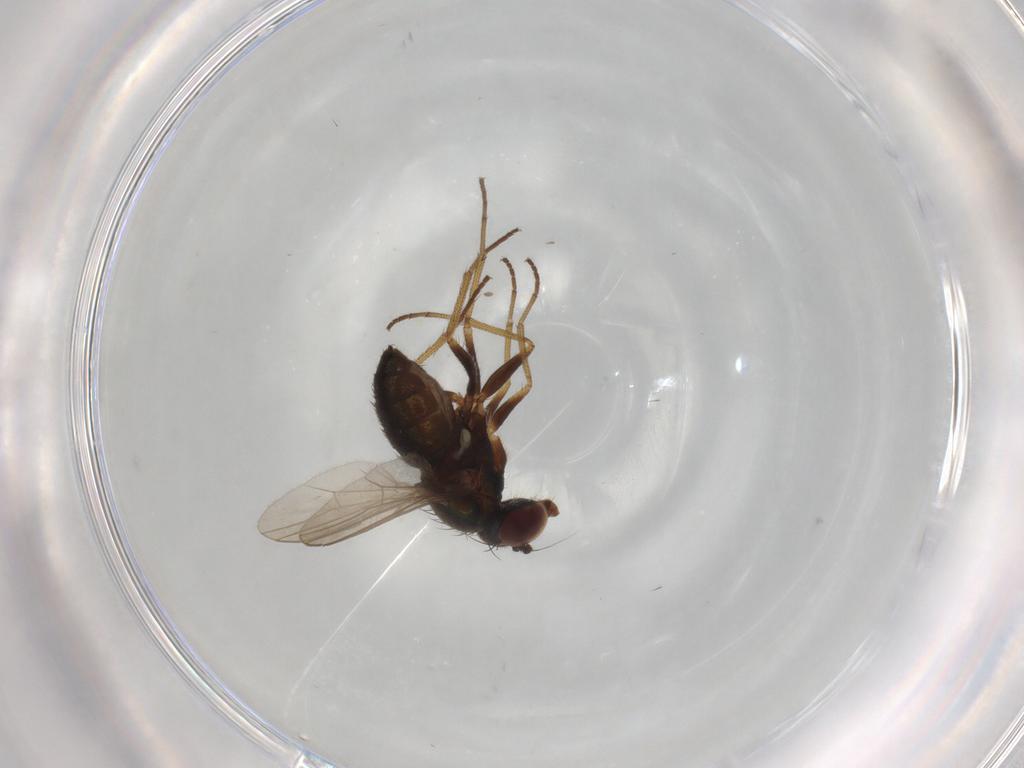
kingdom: Animalia
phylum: Arthropoda
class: Insecta
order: Diptera
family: Dolichopodidae
